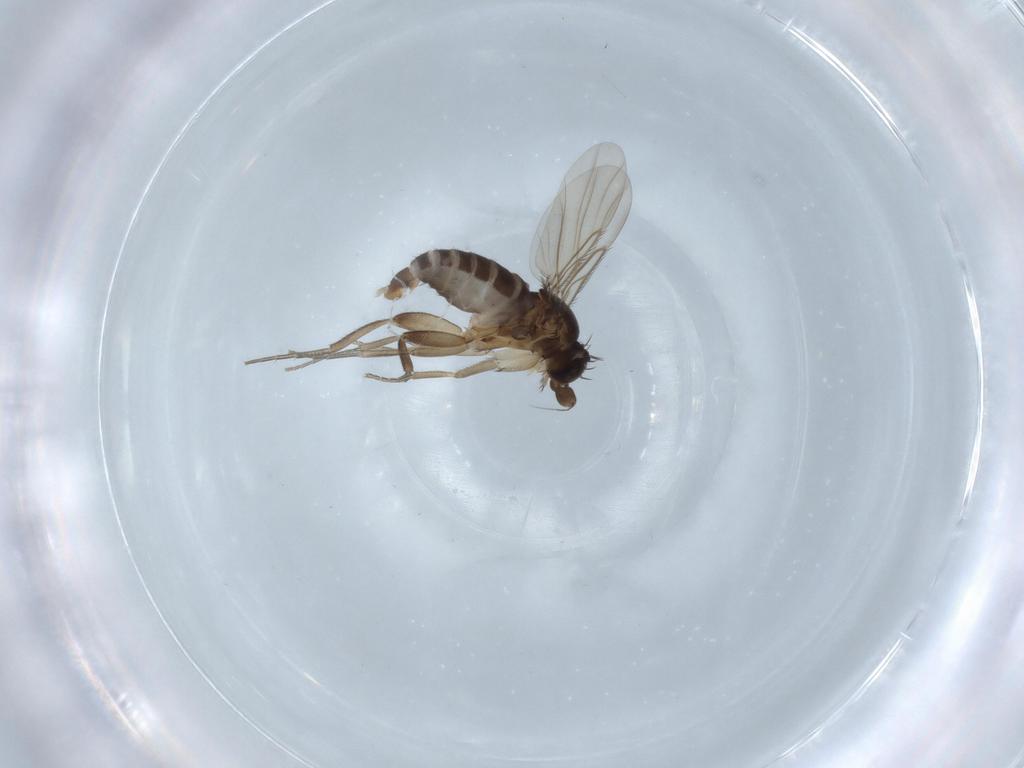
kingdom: Animalia
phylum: Arthropoda
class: Insecta
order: Diptera
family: Phoridae
